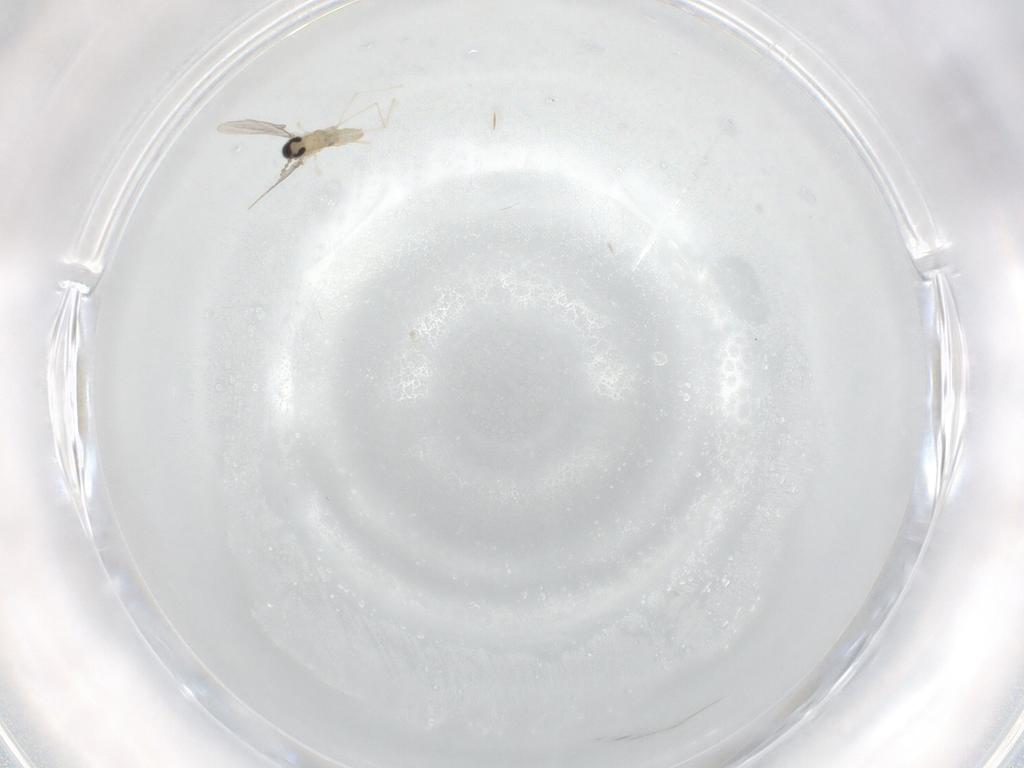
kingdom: Animalia
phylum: Arthropoda
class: Insecta
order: Diptera
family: Cecidomyiidae
